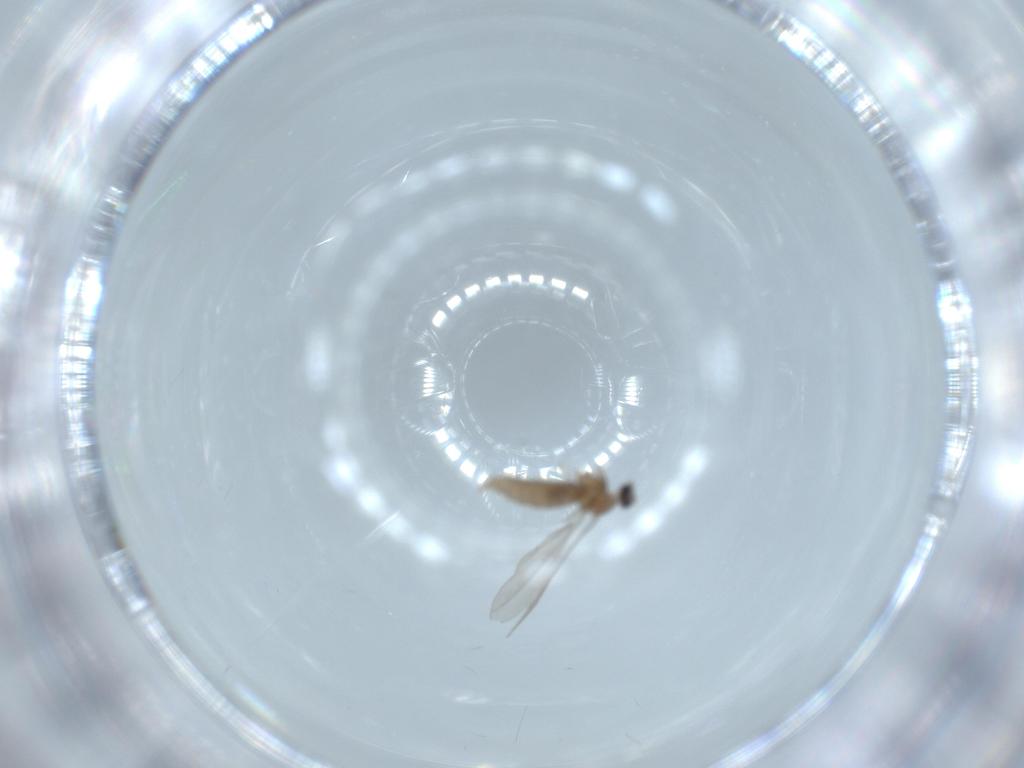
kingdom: Animalia
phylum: Arthropoda
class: Insecta
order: Diptera
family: Cecidomyiidae
